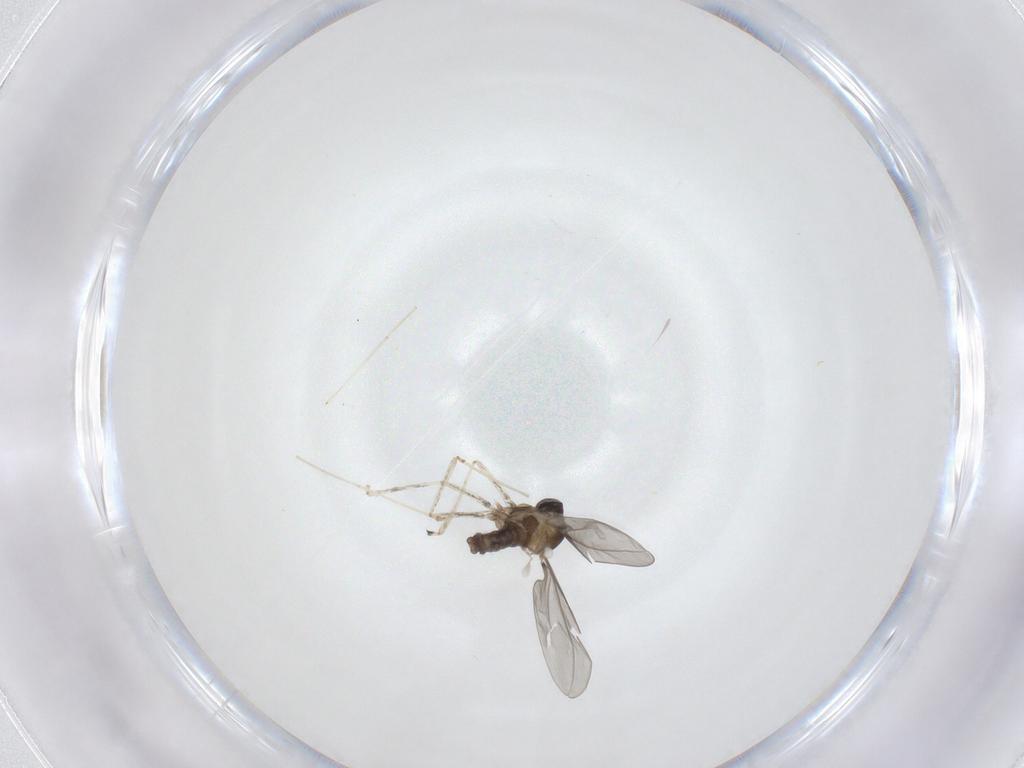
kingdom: Animalia
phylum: Arthropoda
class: Insecta
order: Diptera
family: Cecidomyiidae
